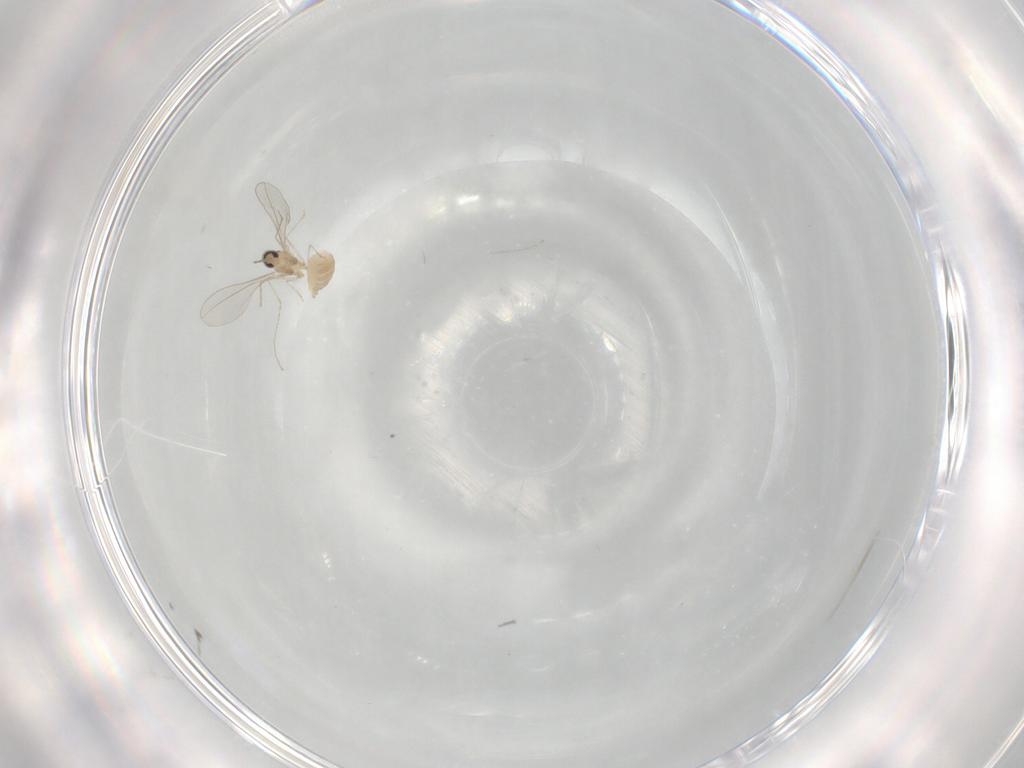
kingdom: Animalia
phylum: Arthropoda
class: Insecta
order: Diptera
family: Cecidomyiidae
